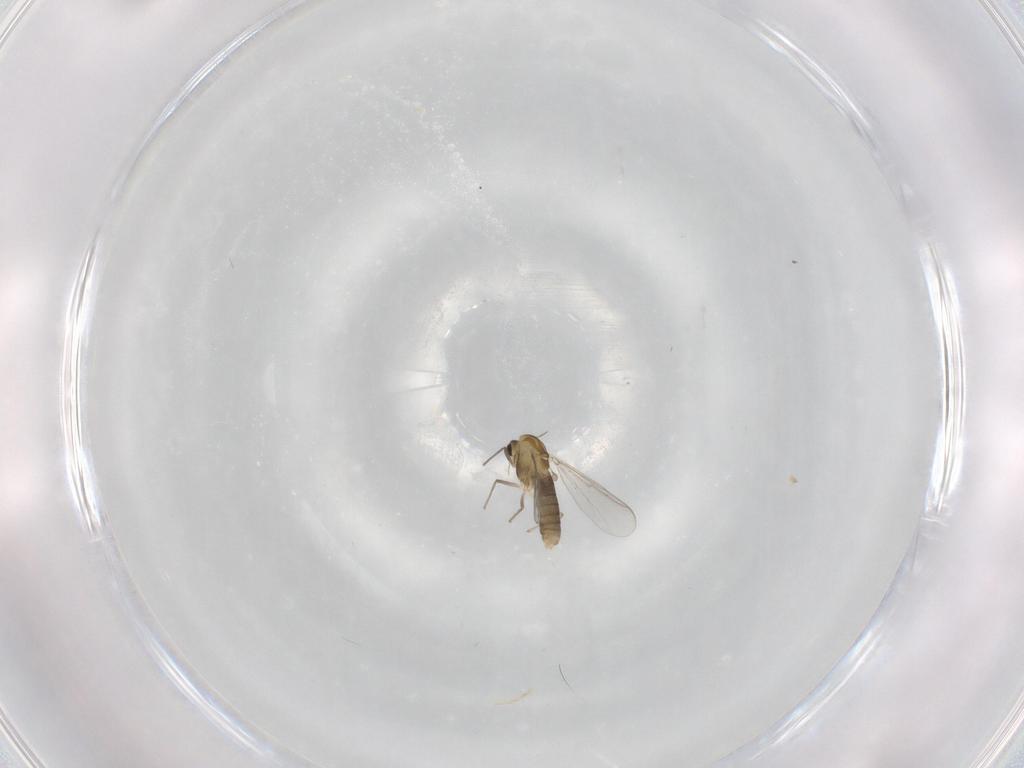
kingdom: Animalia
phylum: Arthropoda
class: Insecta
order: Diptera
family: Chironomidae
